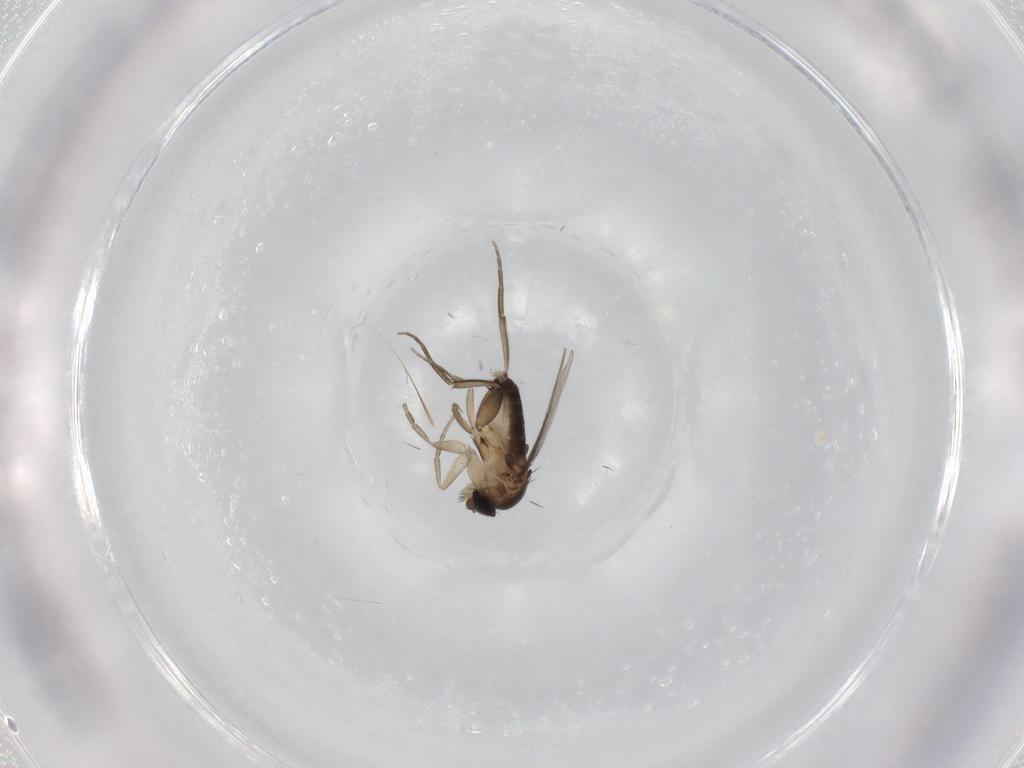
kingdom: Animalia
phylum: Arthropoda
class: Insecta
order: Diptera
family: Phoridae
